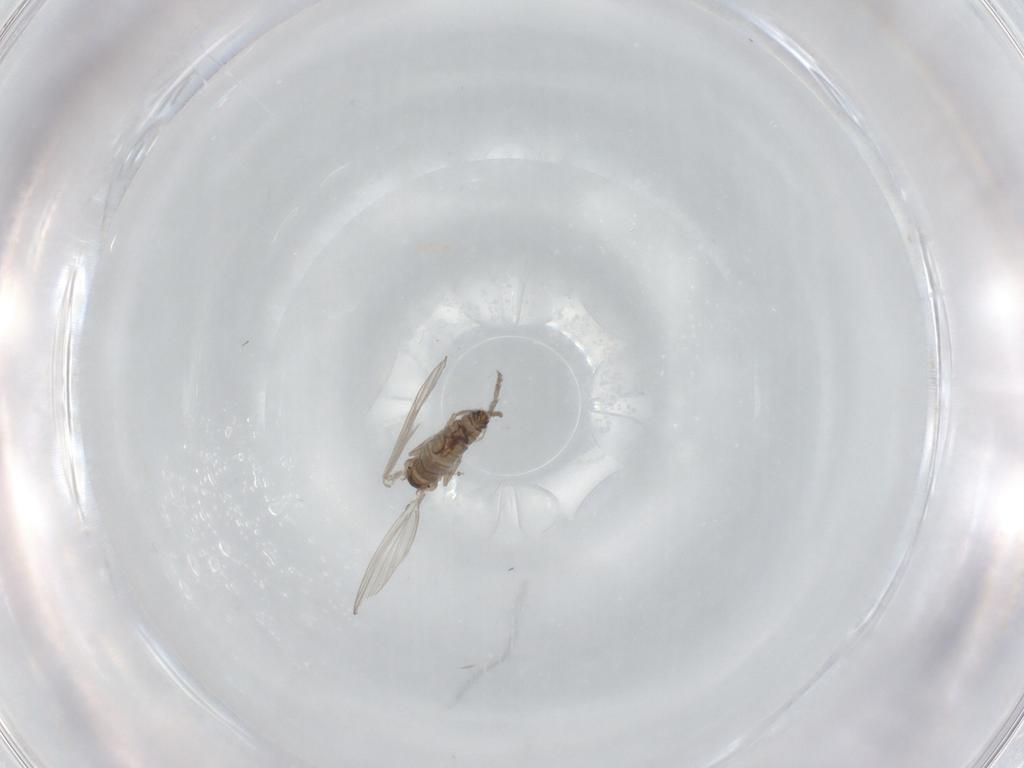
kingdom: Animalia
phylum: Arthropoda
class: Insecta
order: Diptera
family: Psychodidae
